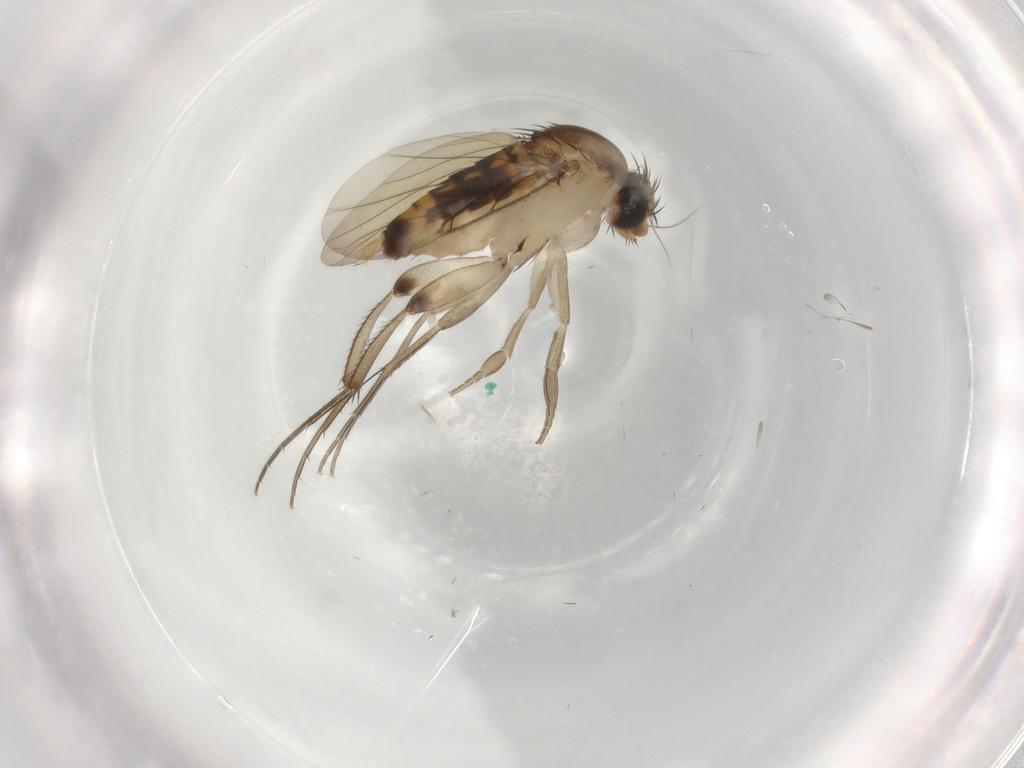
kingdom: Animalia
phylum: Arthropoda
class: Insecta
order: Diptera
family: Phoridae
